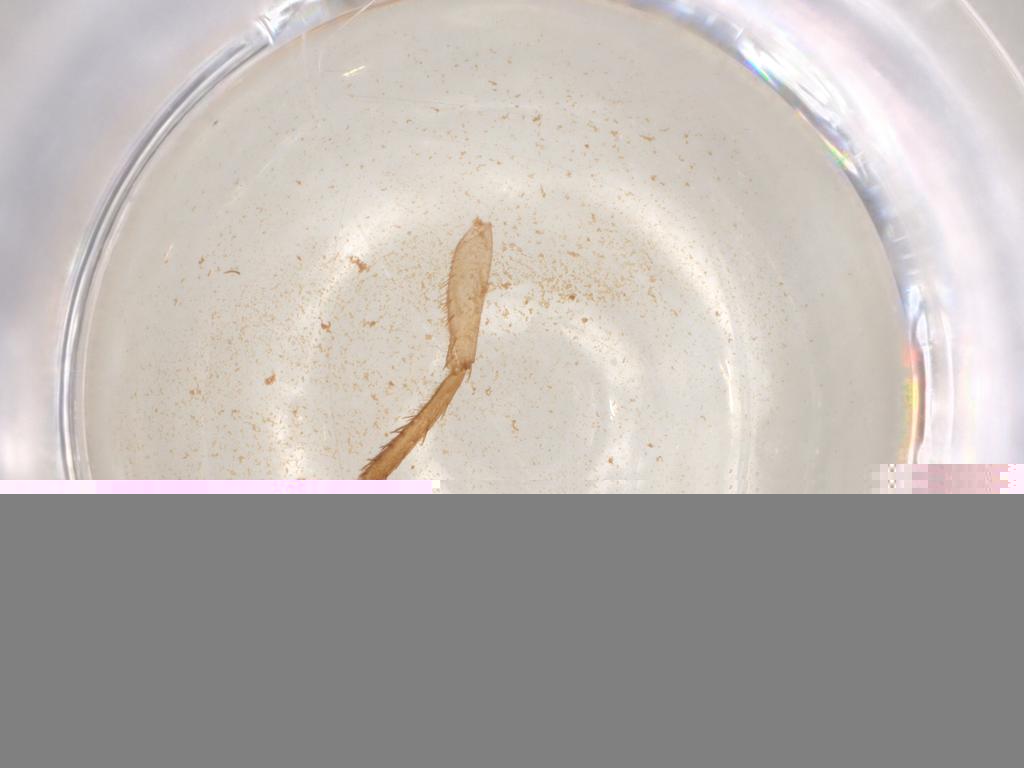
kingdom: Animalia
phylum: Arthropoda
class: Insecta
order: Hemiptera
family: Cicadellidae
